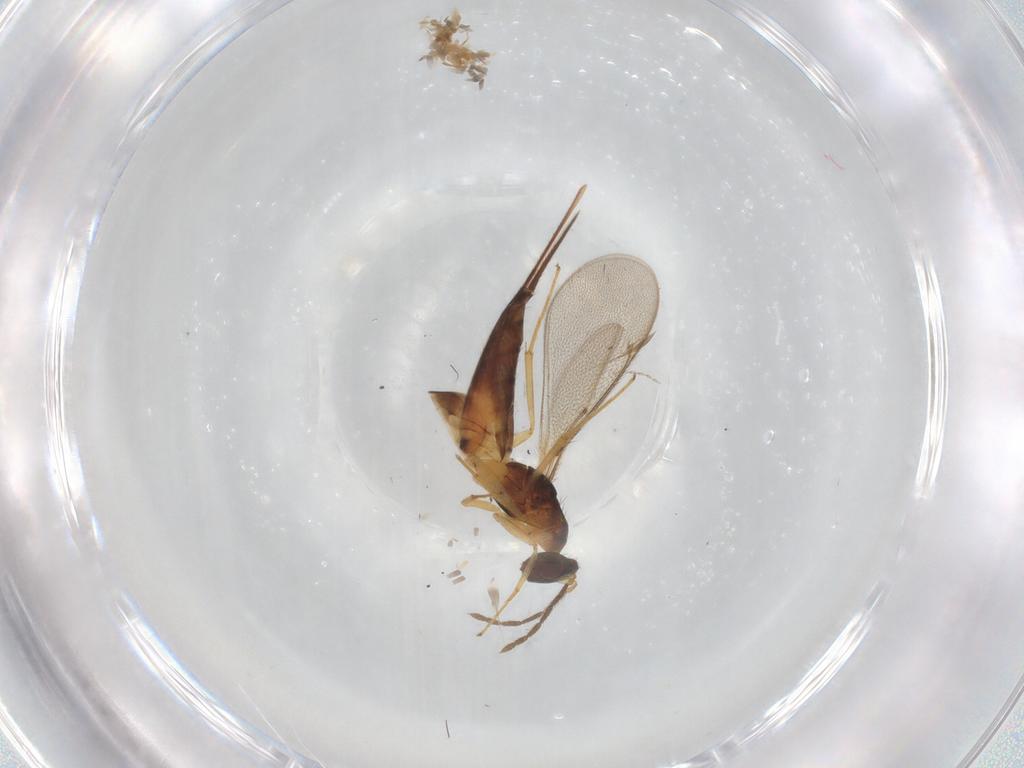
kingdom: Animalia
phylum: Arthropoda
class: Insecta
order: Hymenoptera
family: Eulophidae
